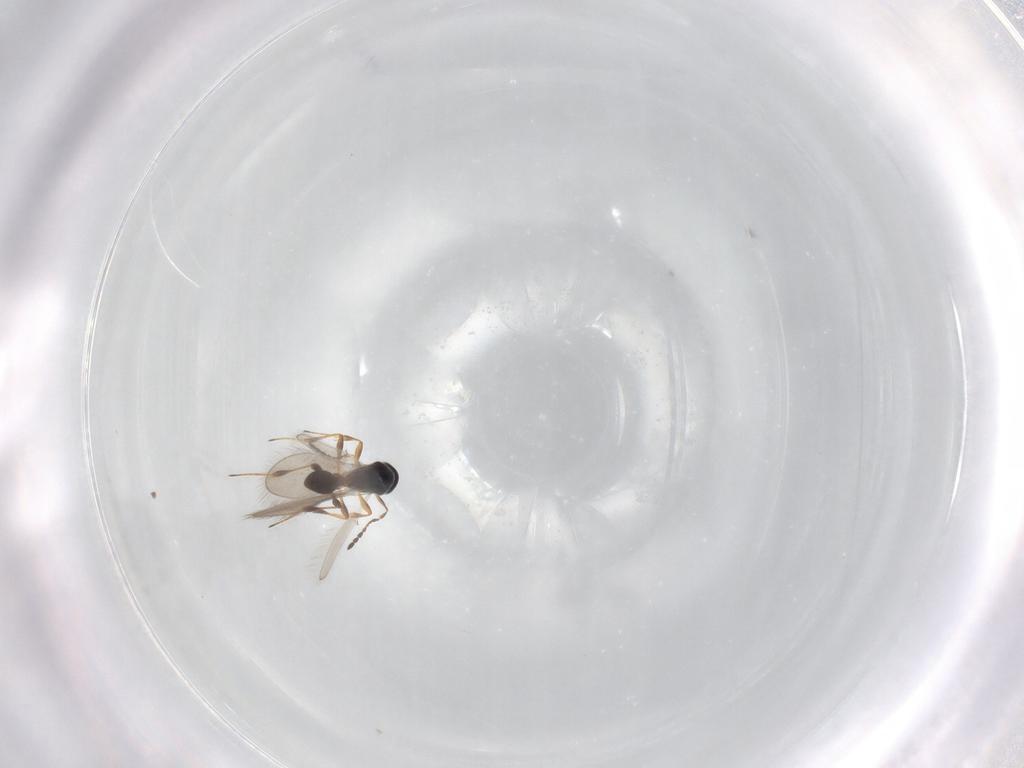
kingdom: Animalia
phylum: Arthropoda
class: Insecta
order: Hymenoptera
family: Platygastridae
